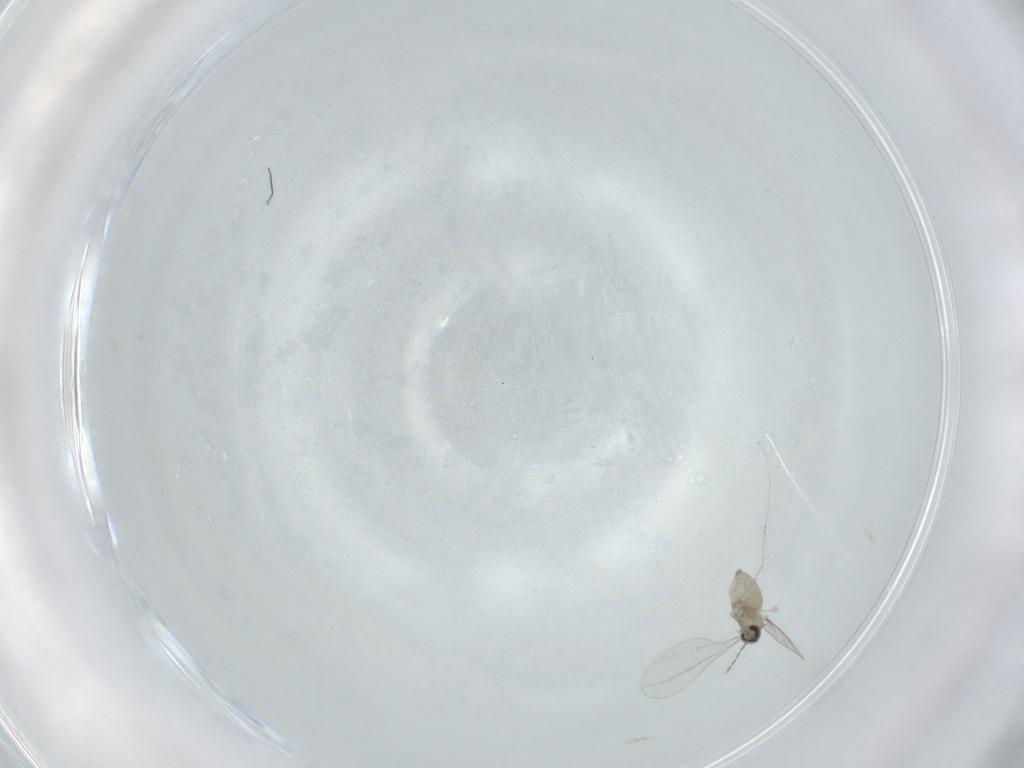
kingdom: Animalia
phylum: Arthropoda
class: Insecta
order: Diptera
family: Cecidomyiidae
